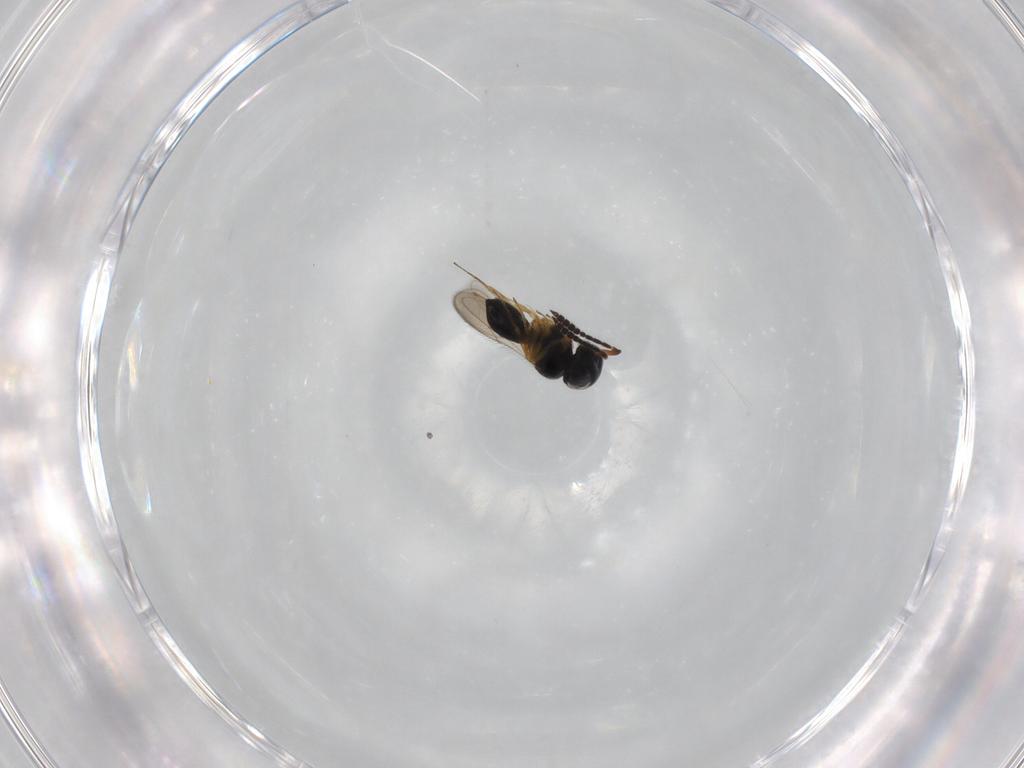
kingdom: Animalia
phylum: Arthropoda
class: Insecta
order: Hymenoptera
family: Scelionidae
